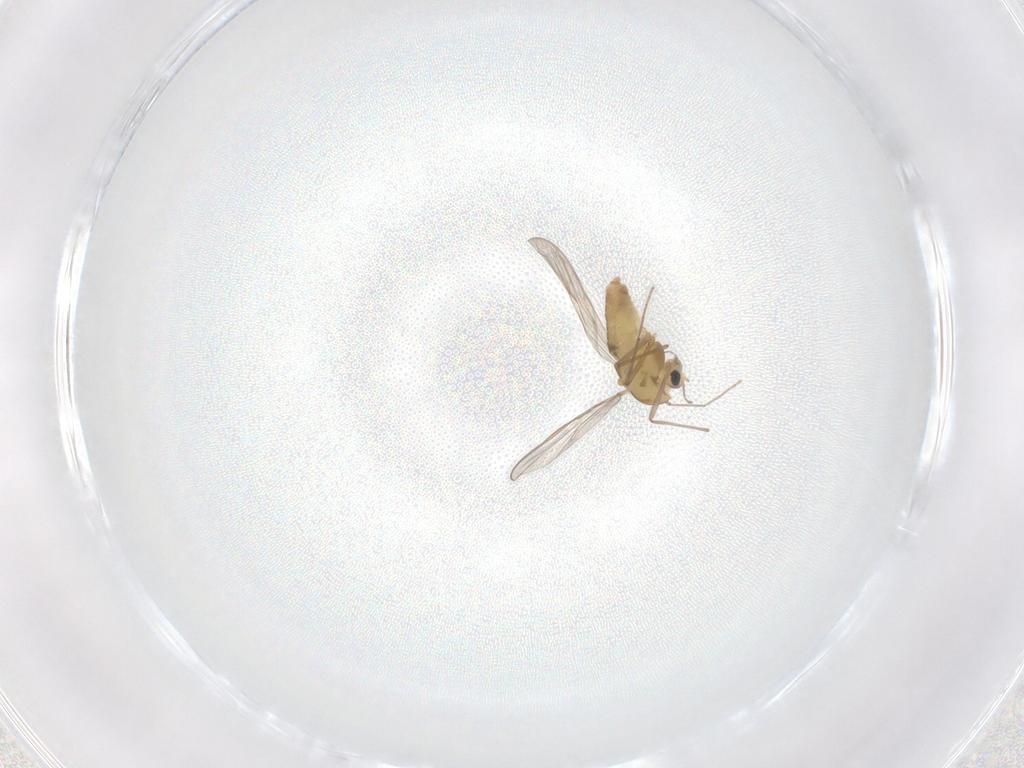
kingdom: Animalia
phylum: Arthropoda
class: Insecta
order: Diptera
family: Chironomidae
